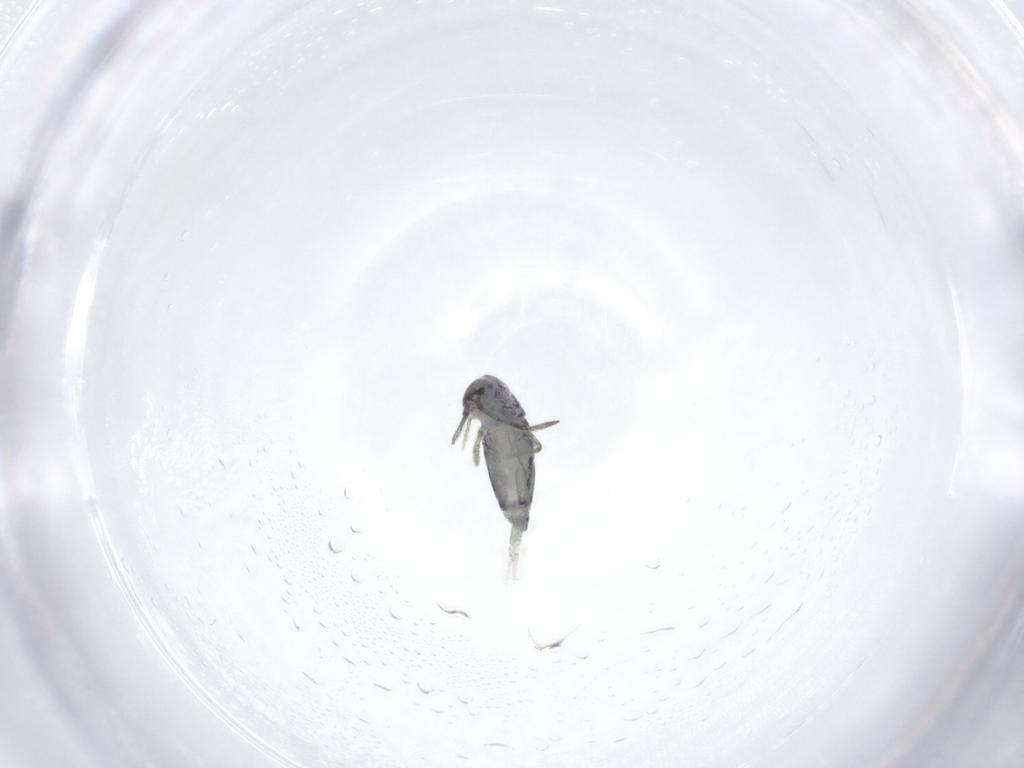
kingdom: Animalia
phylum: Arthropoda
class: Collembola
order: Entomobryomorpha
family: Entomobryidae
